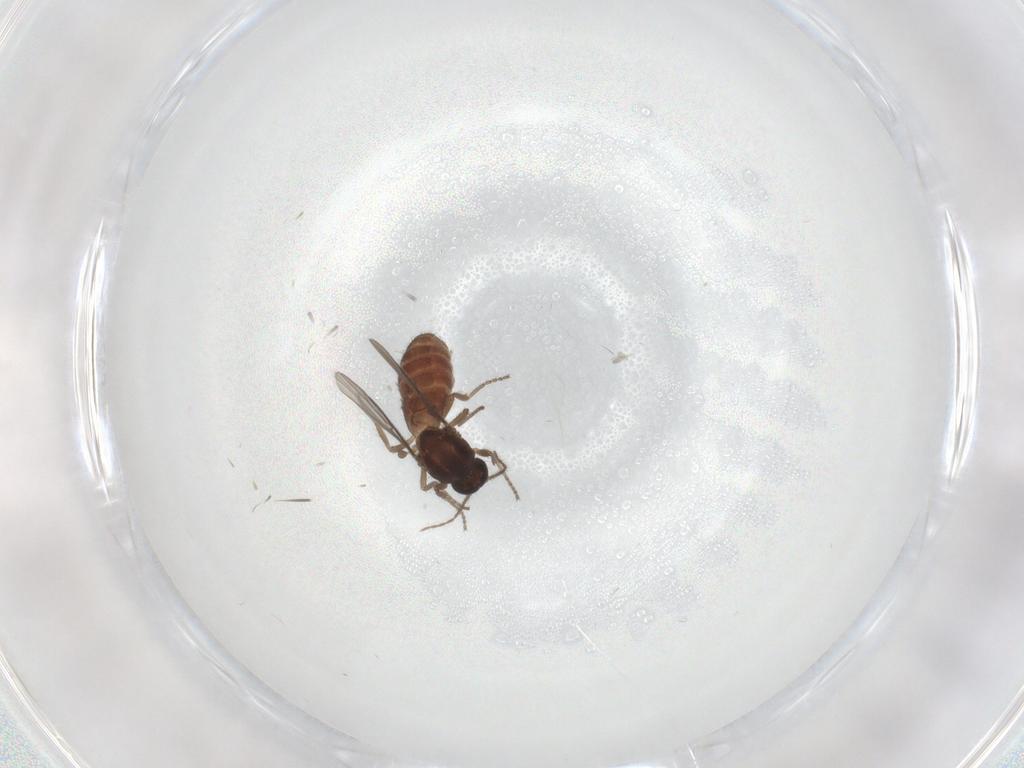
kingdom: Animalia
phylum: Arthropoda
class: Insecta
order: Diptera
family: Ceratopogonidae
